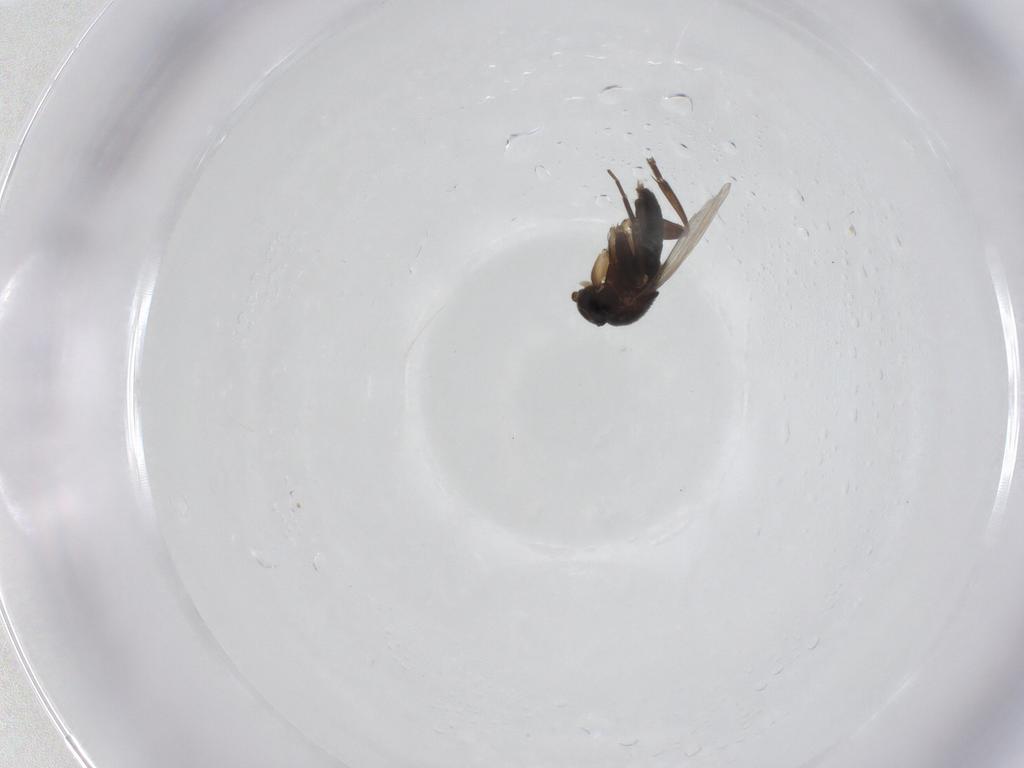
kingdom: Animalia
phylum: Arthropoda
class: Insecta
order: Diptera
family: Phoridae
